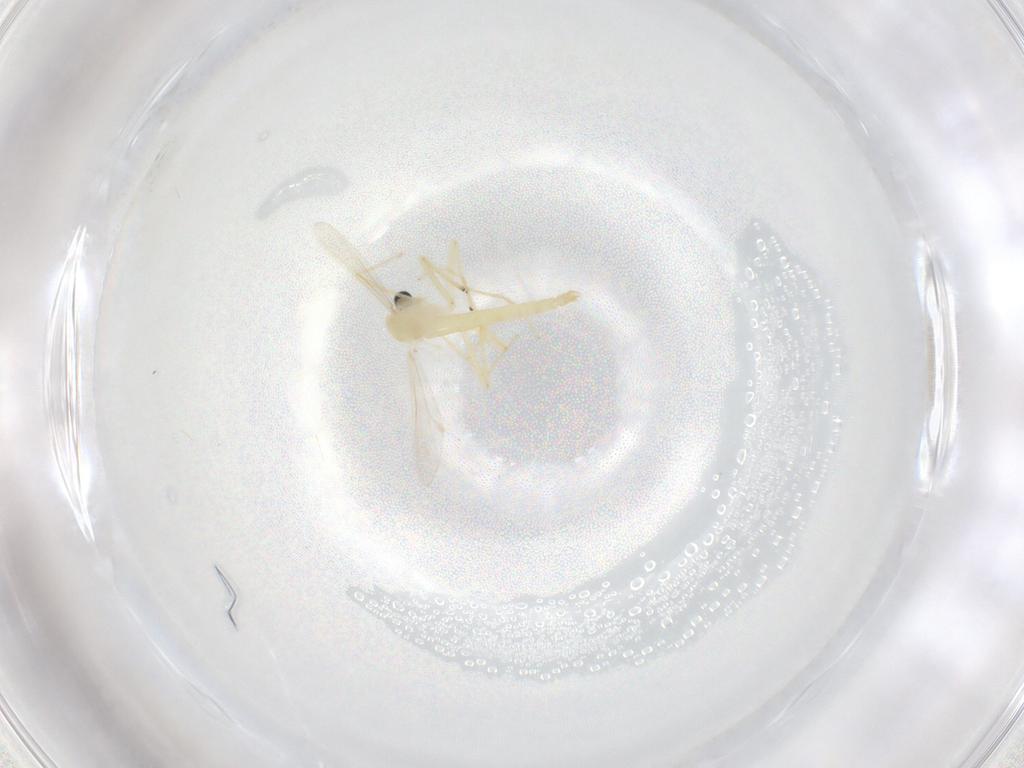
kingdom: Animalia
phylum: Arthropoda
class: Insecta
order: Diptera
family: Chironomidae
